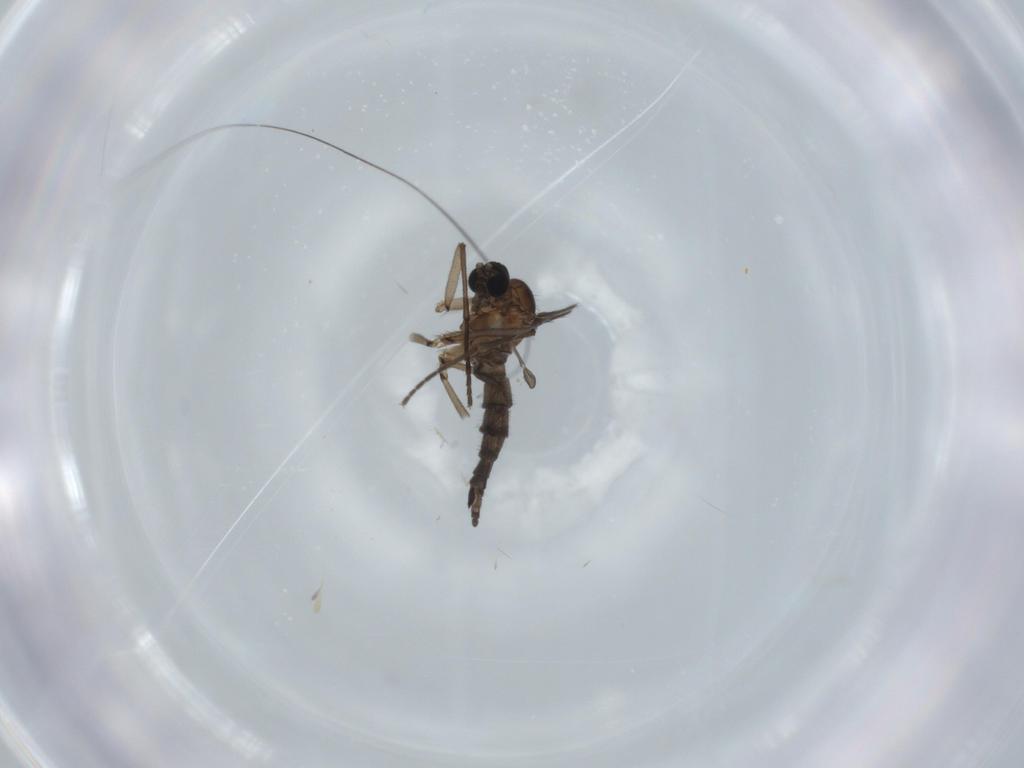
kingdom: Animalia
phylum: Arthropoda
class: Insecta
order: Diptera
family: Sciaridae
